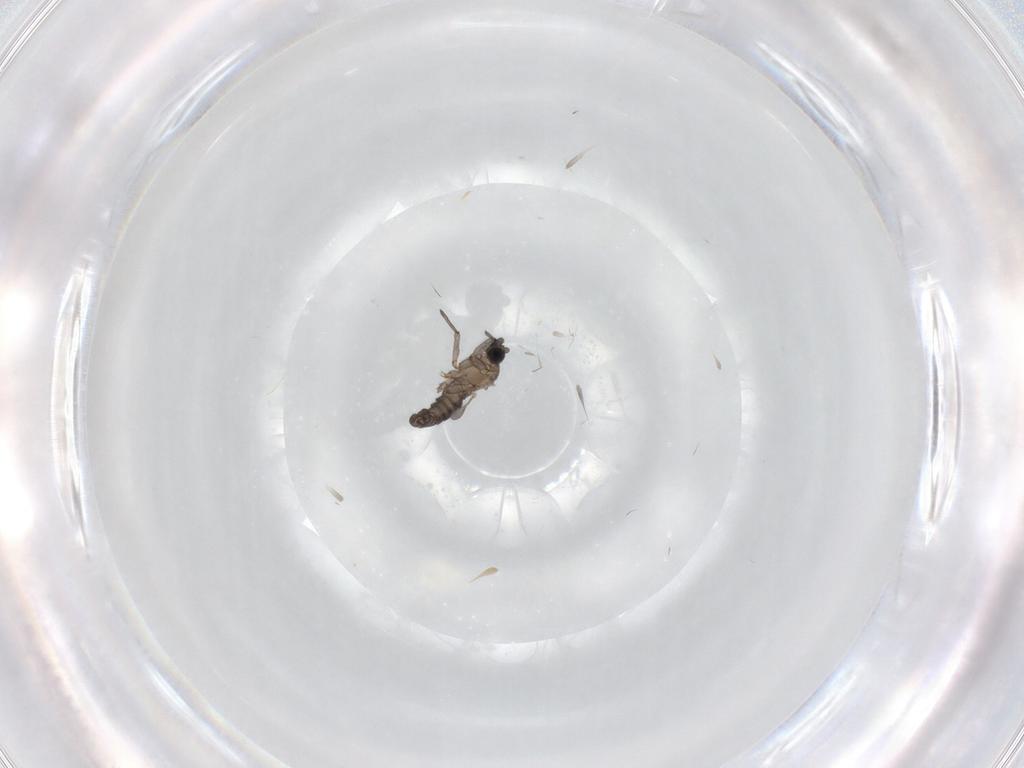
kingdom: Animalia
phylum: Arthropoda
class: Insecta
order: Diptera
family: Sciaridae
